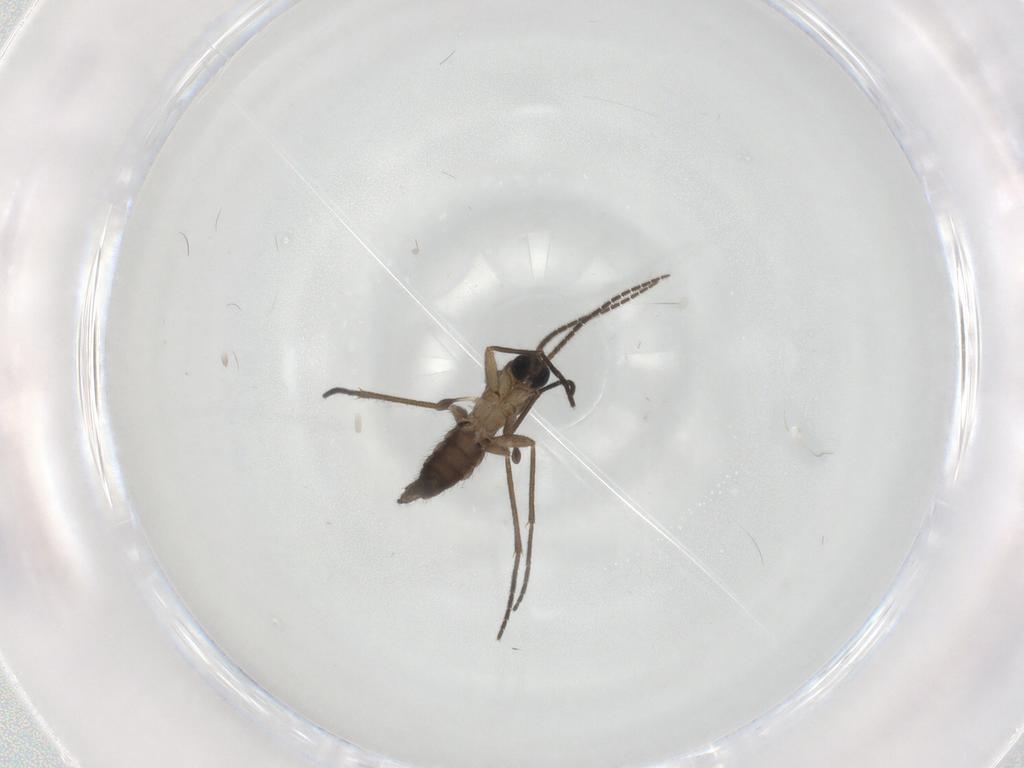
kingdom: Animalia
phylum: Arthropoda
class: Insecta
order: Diptera
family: Sciaridae
